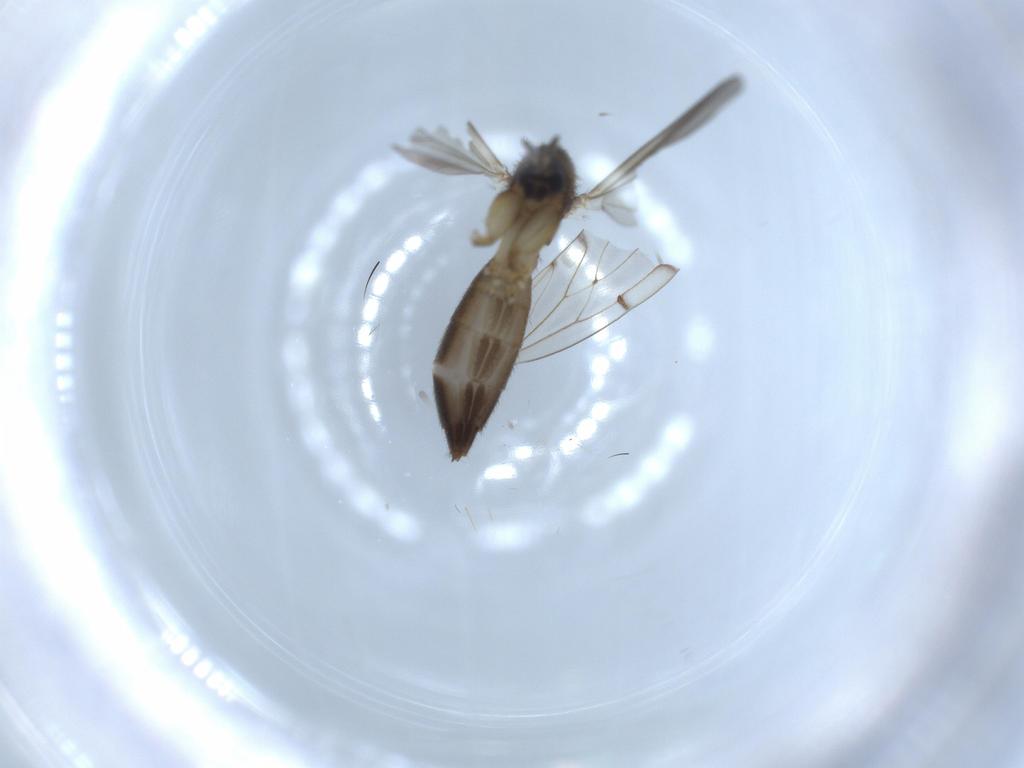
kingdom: Animalia
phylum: Arthropoda
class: Insecta
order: Diptera
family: Mycetophilidae
